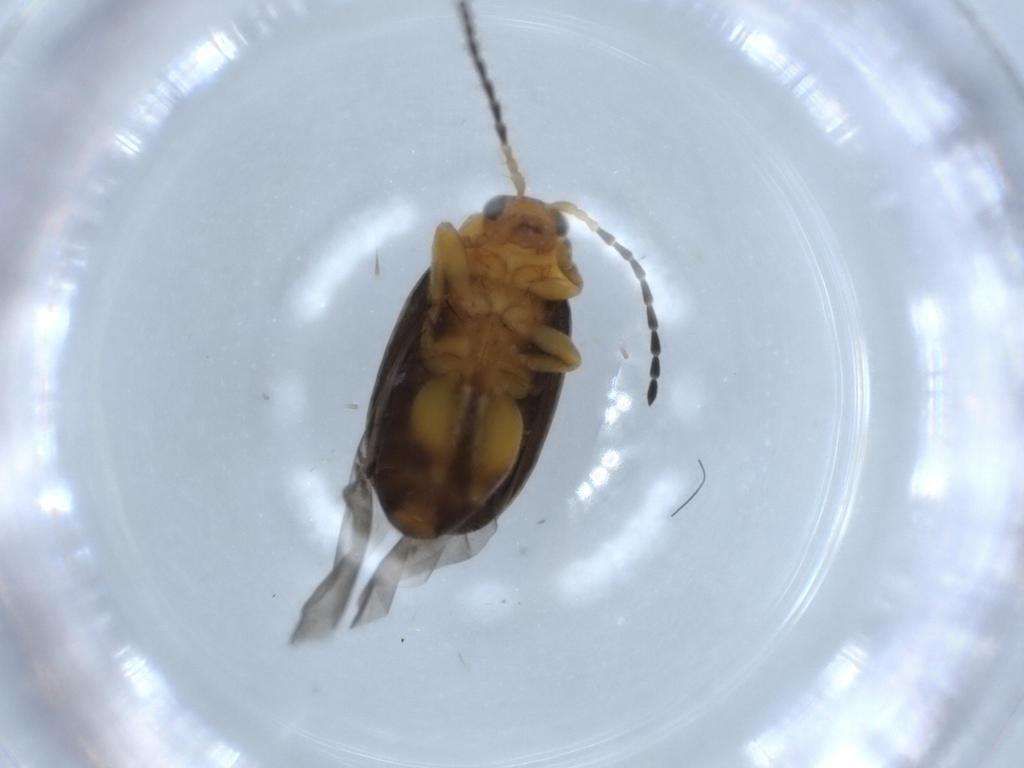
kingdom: Animalia
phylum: Arthropoda
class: Insecta
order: Coleoptera
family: Chrysomelidae
